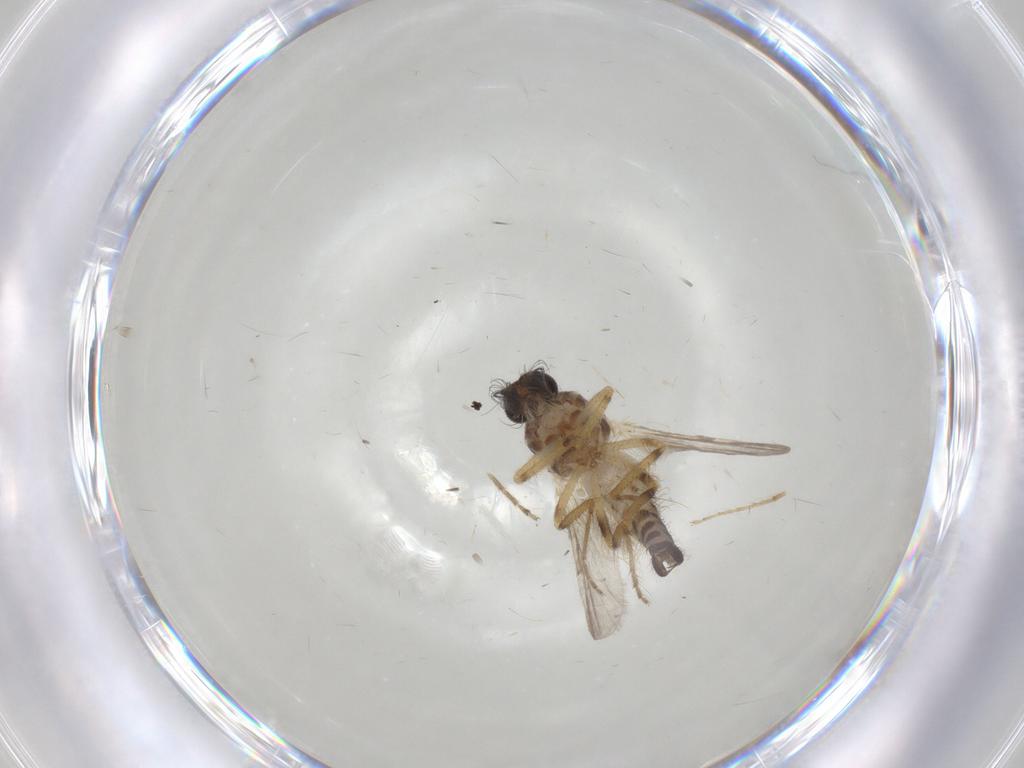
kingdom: Animalia
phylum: Arthropoda
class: Insecta
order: Diptera
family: Ceratopogonidae
